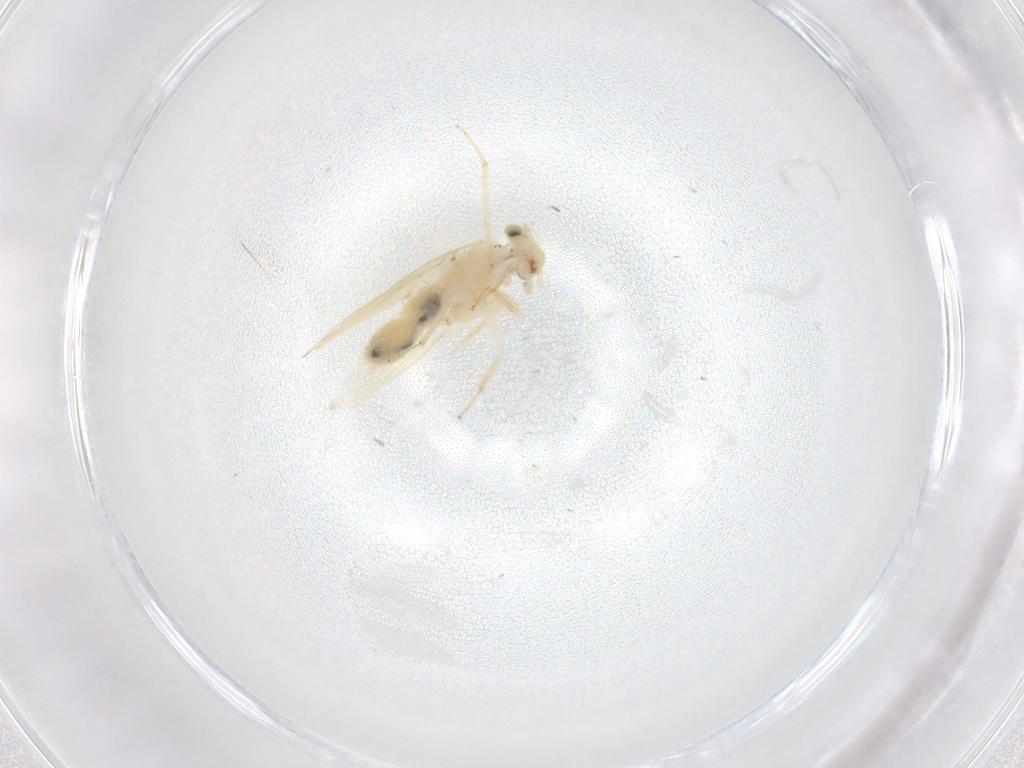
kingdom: Animalia
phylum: Arthropoda
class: Insecta
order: Psocodea
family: Lepidopsocidae
